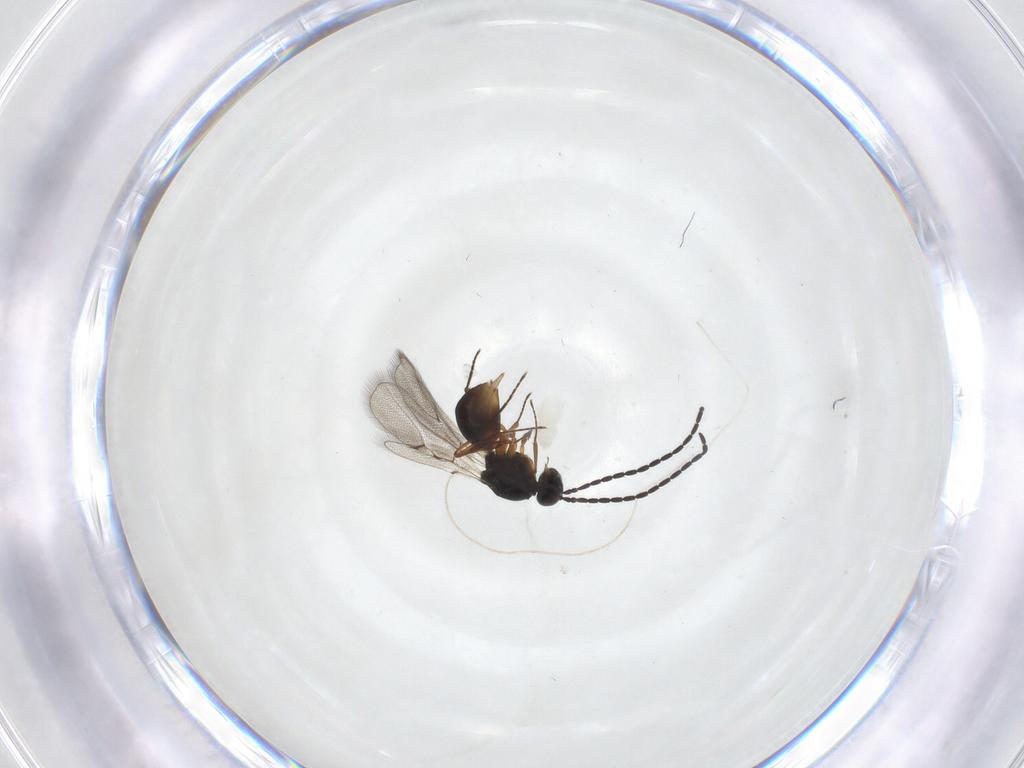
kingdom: Animalia
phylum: Arthropoda
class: Insecta
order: Hymenoptera
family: Figitidae
